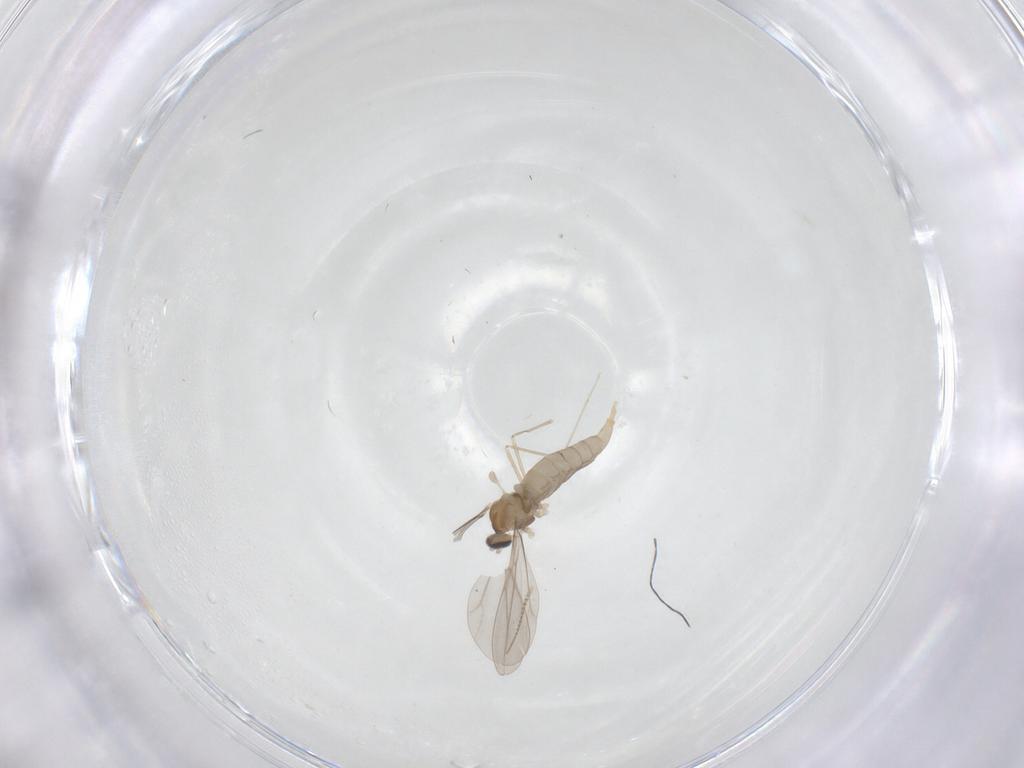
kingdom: Animalia
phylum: Arthropoda
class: Insecta
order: Diptera
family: Cecidomyiidae
